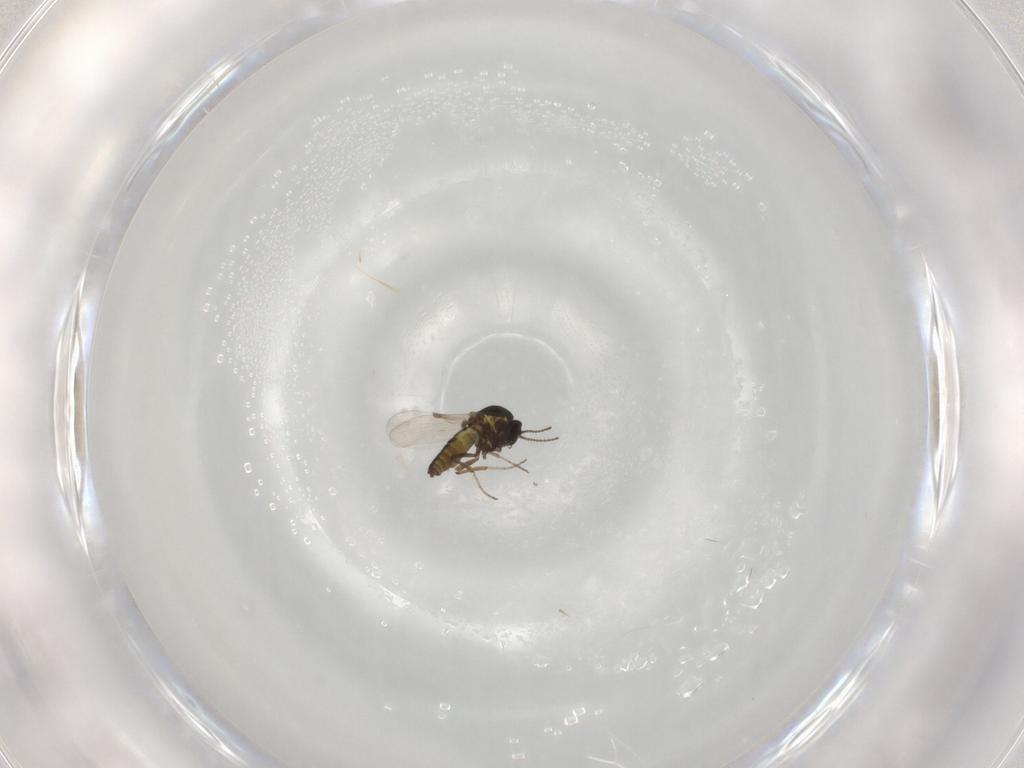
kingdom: Animalia
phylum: Arthropoda
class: Insecta
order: Diptera
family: Ceratopogonidae
